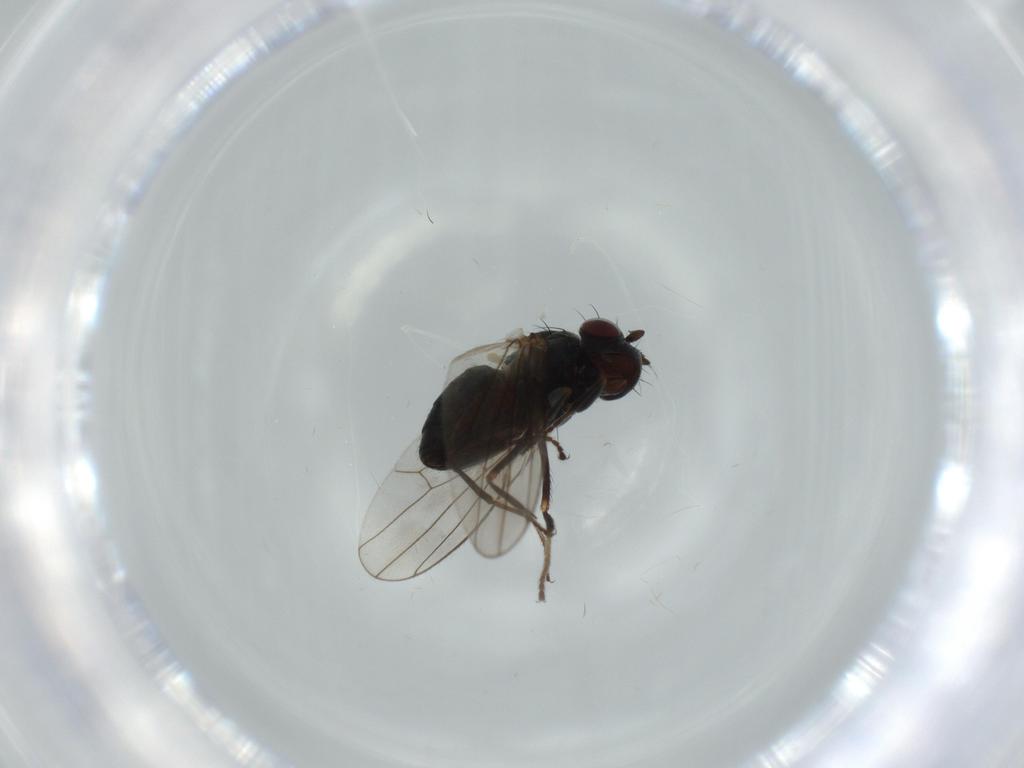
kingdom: Animalia
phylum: Arthropoda
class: Insecta
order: Diptera
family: Ephydridae
